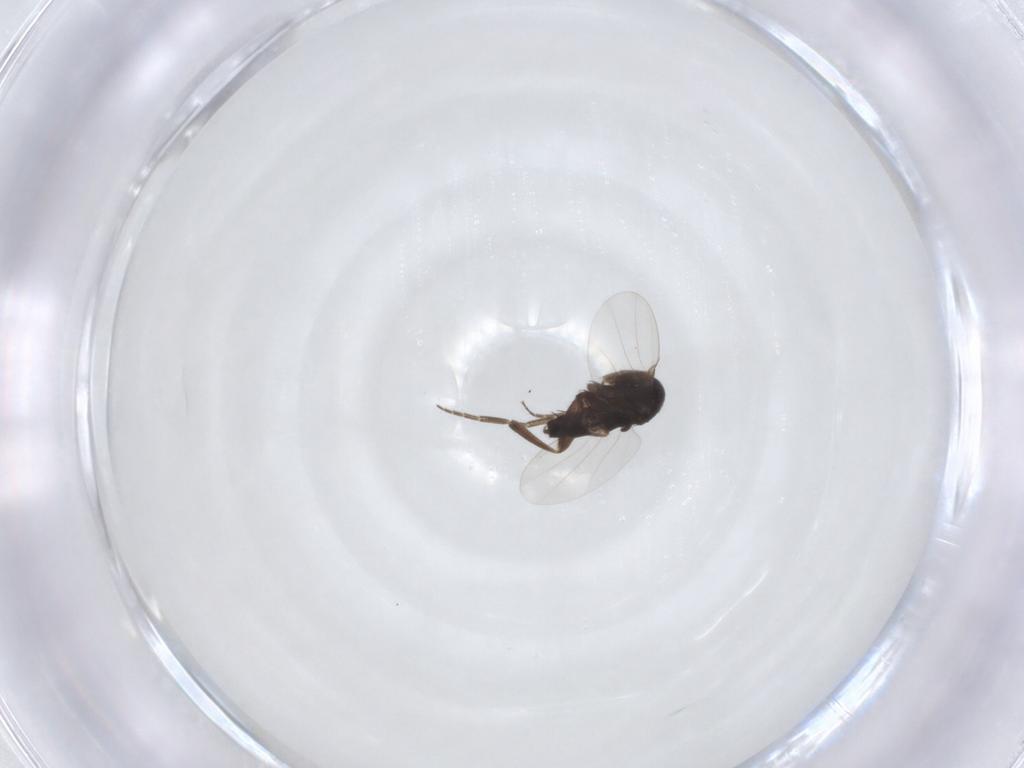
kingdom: Animalia
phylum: Arthropoda
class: Insecta
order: Diptera
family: Phoridae
